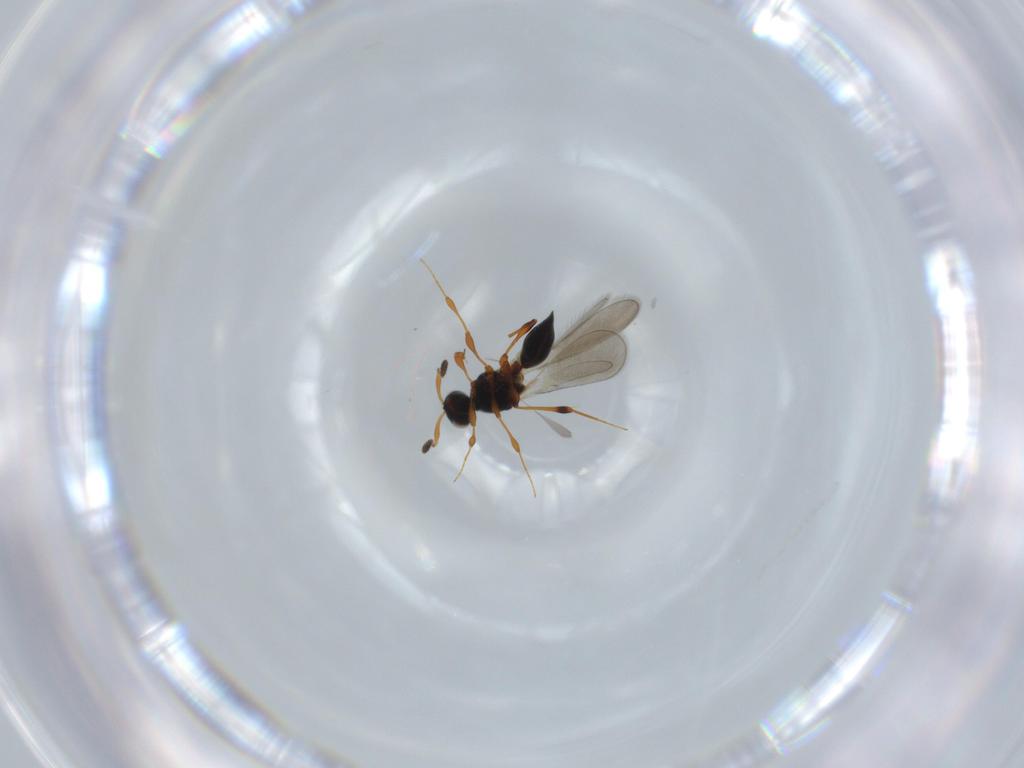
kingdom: Animalia
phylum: Arthropoda
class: Insecta
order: Hymenoptera
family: Platygastridae
